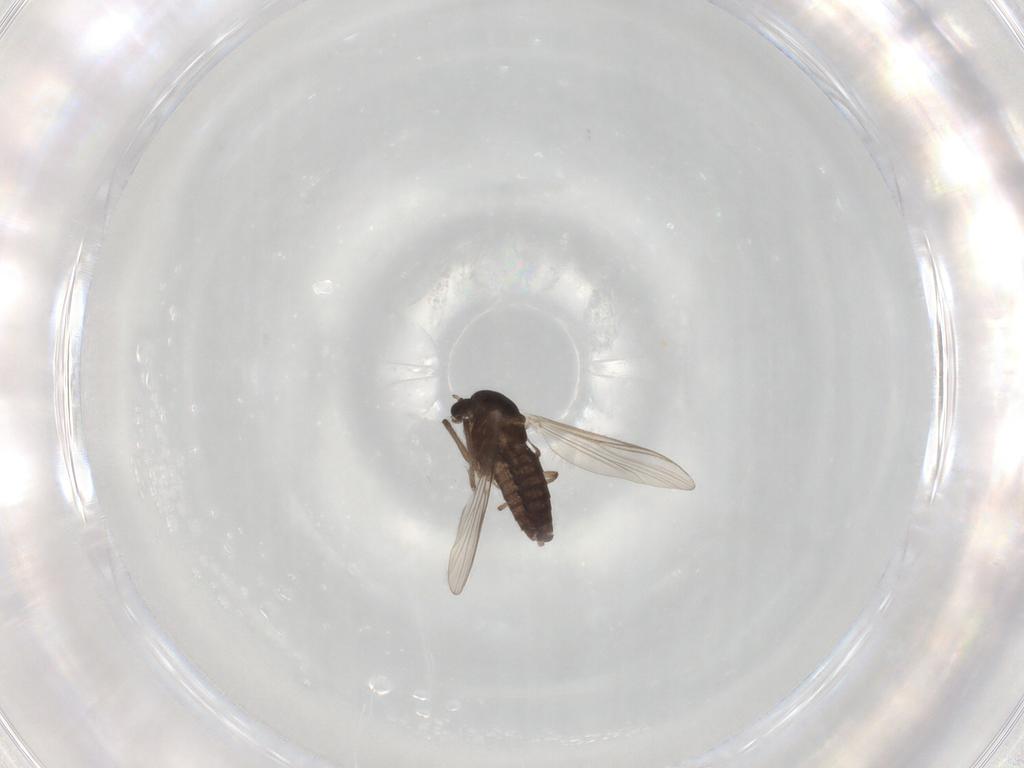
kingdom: Animalia
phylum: Arthropoda
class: Insecta
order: Diptera
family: Chironomidae
